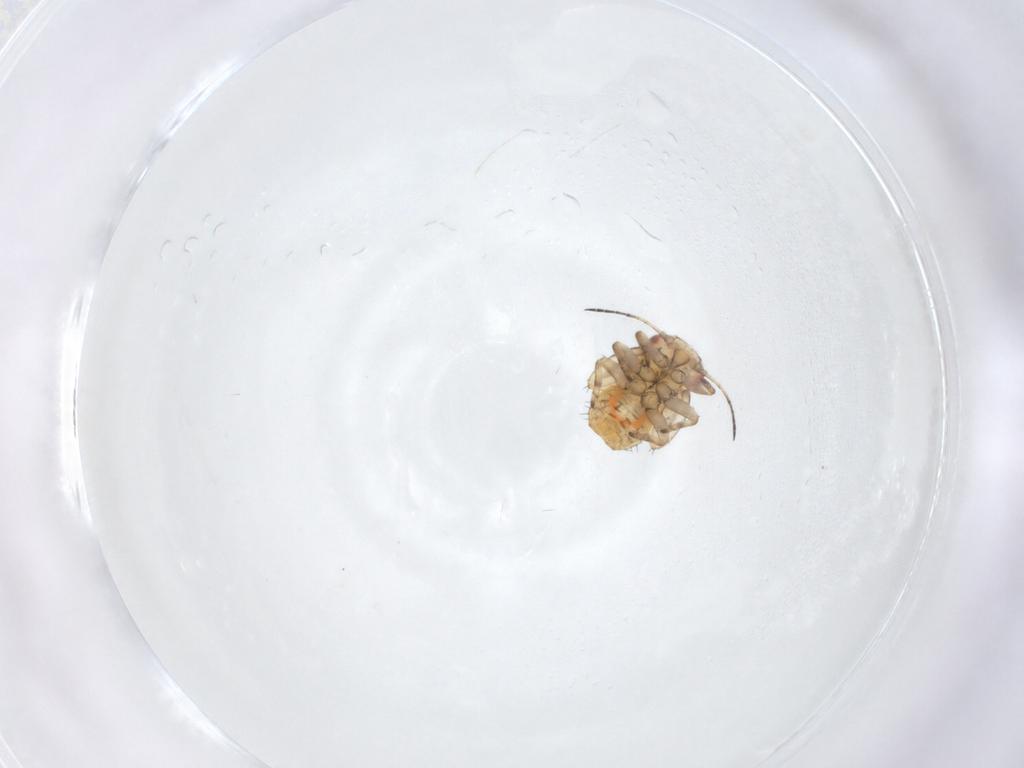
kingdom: Animalia
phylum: Arthropoda
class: Insecta
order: Hemiptera
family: Psyllidae
